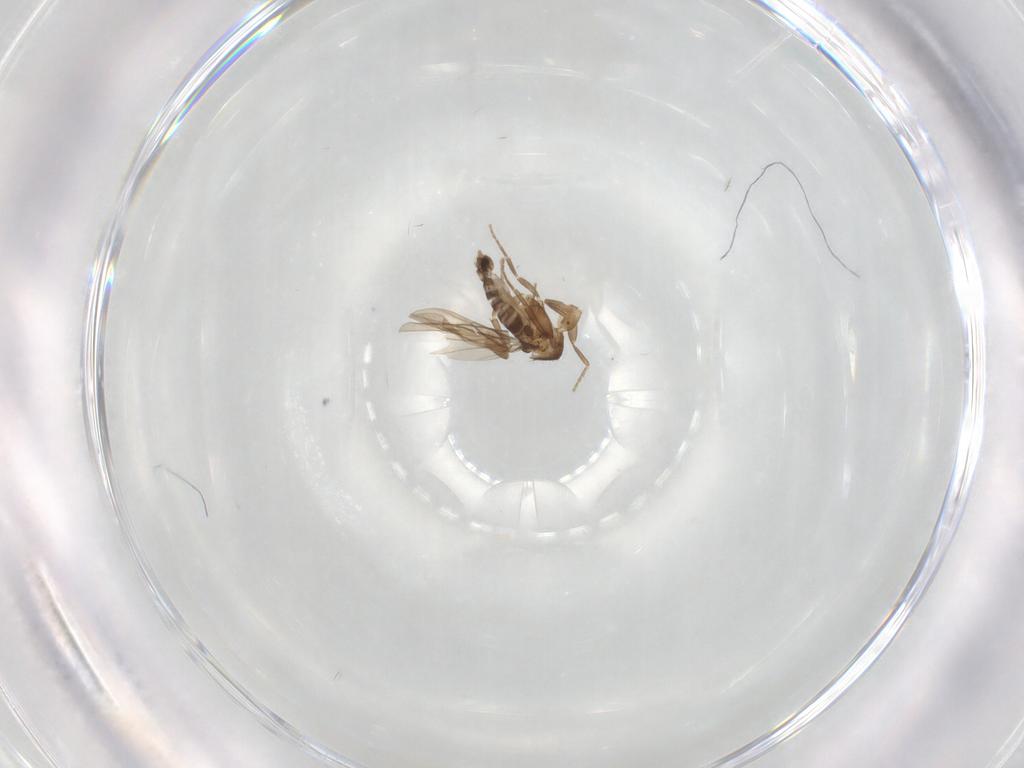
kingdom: Animalia
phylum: Arthropoda
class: Insecta
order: Diptera
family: Phoridae
